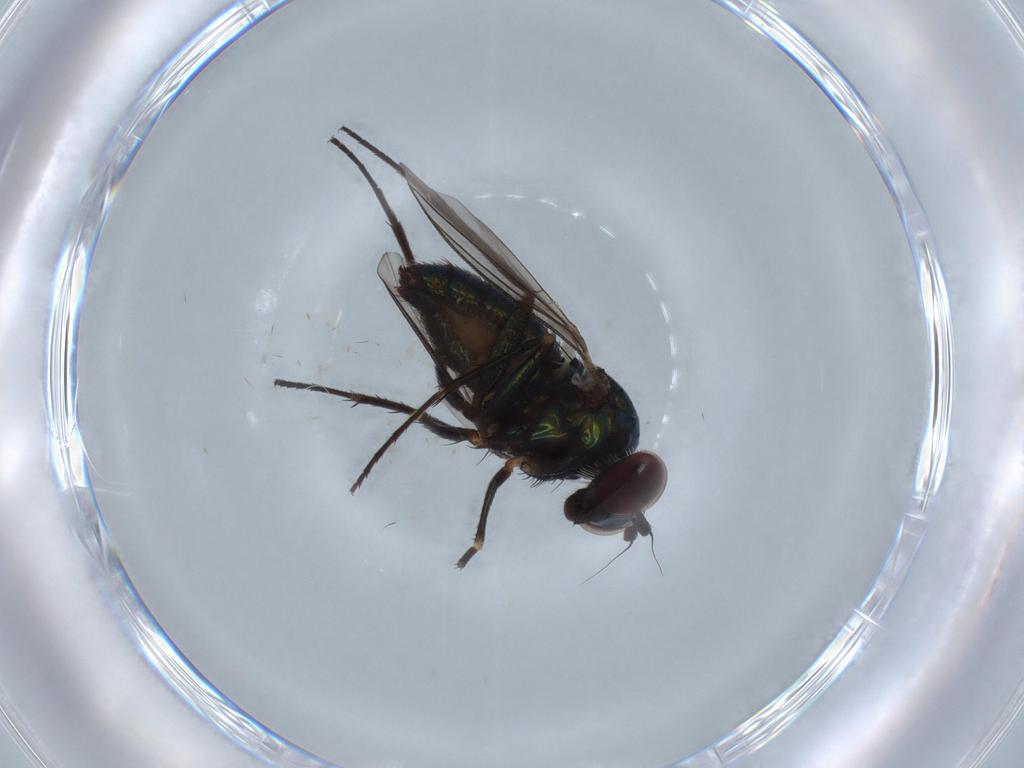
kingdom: Animalia
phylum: Arthropoda
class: Insecta
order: Diptera
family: Dolichopodidae
